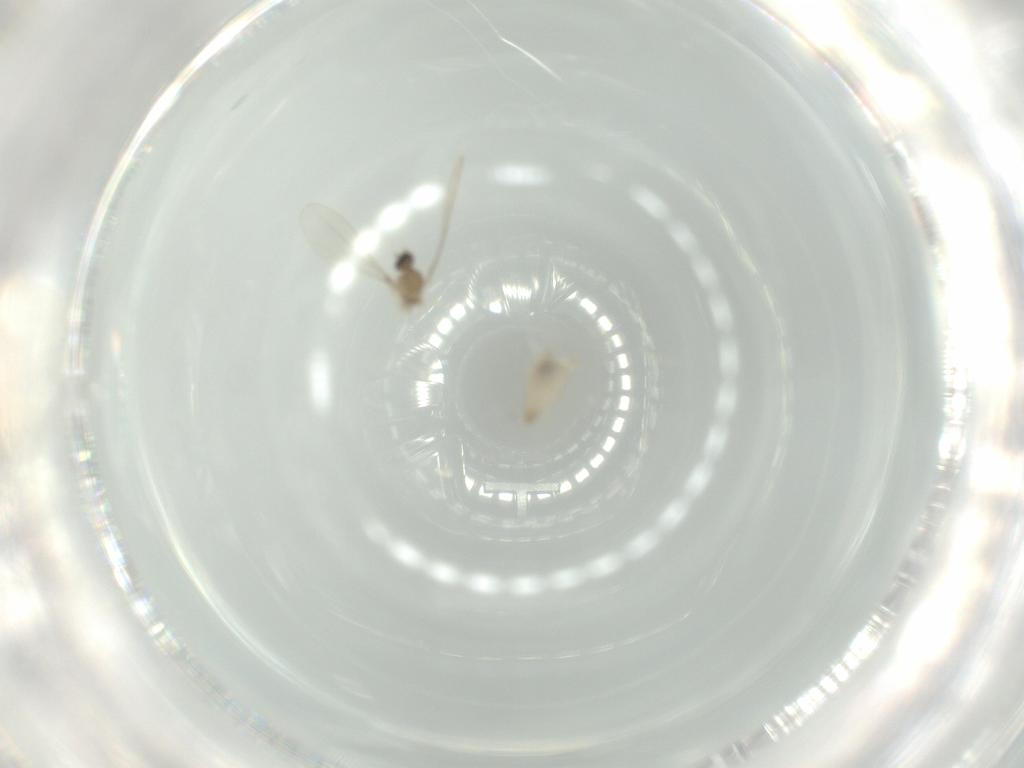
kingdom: Animalia
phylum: Arthropoda
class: Insecta
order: Diptera
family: Cecidomyiidae
